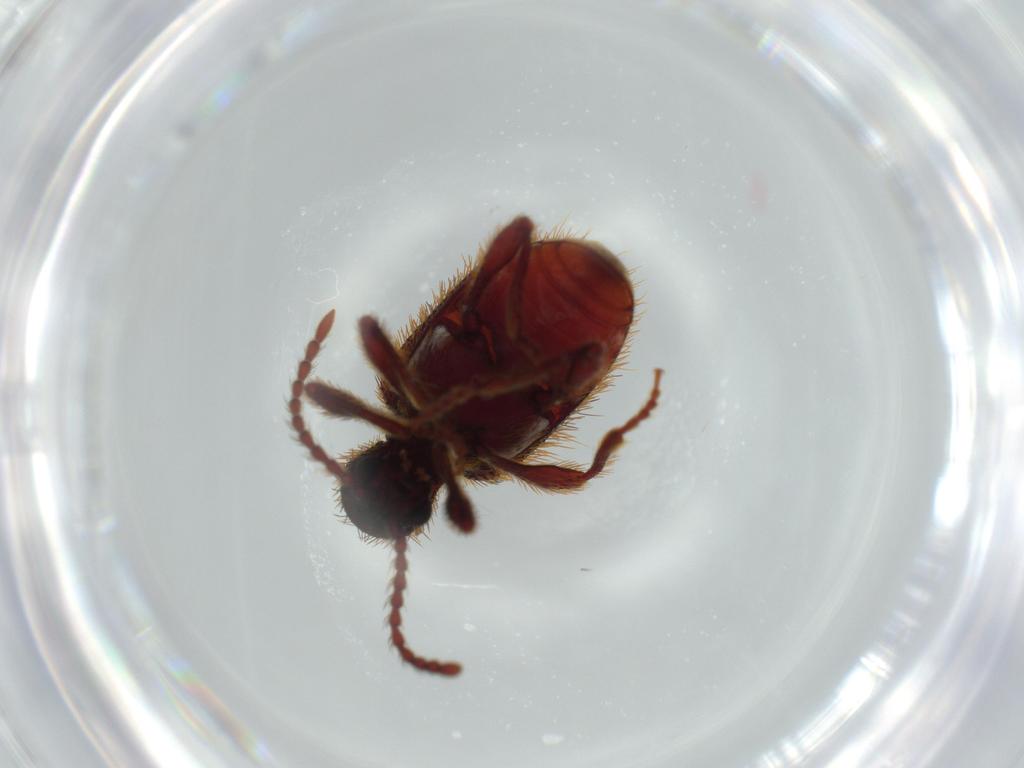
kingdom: Animalia
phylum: Arthropoda
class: Insecta
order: Coleoptera
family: Ptinidae
